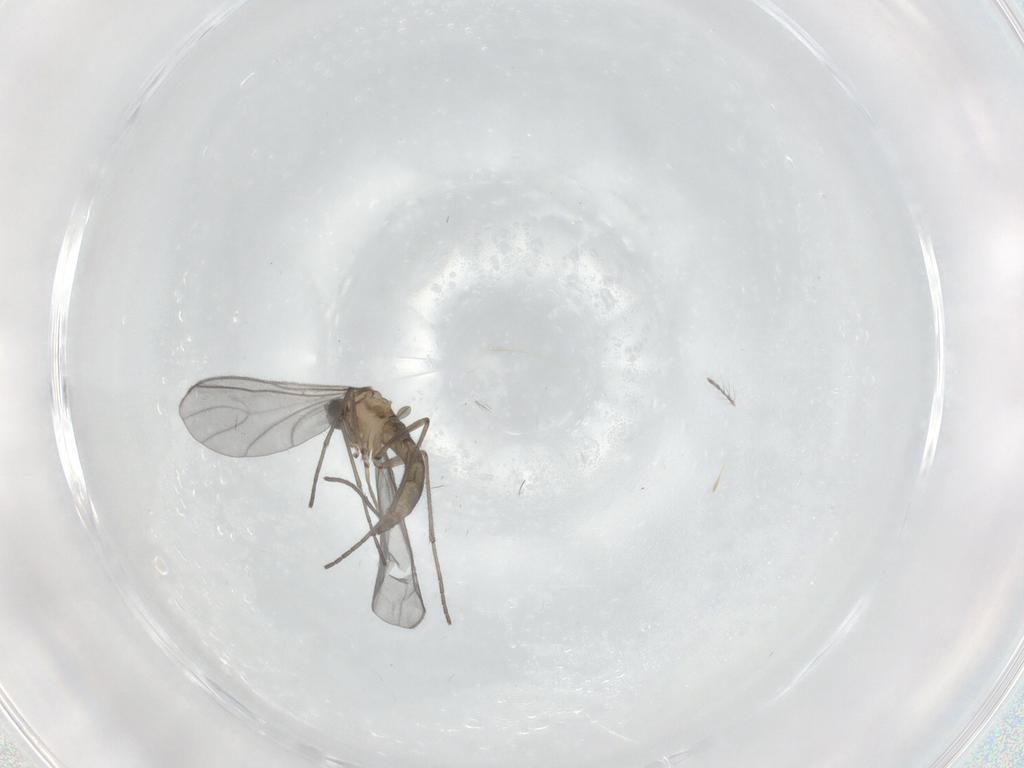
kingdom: Animalia
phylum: Arthropoda
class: Insecta
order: Diptera
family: Sciaridae
